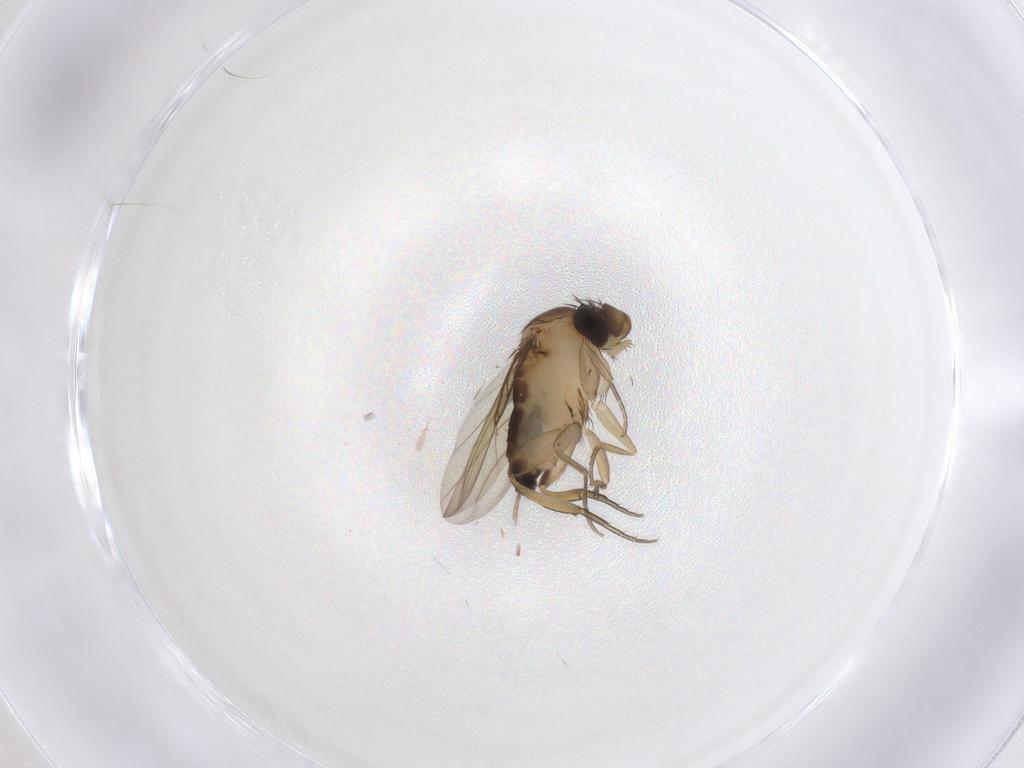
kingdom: Animalia
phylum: Arthropoda
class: Insecta
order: Diptera
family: Phoridae
